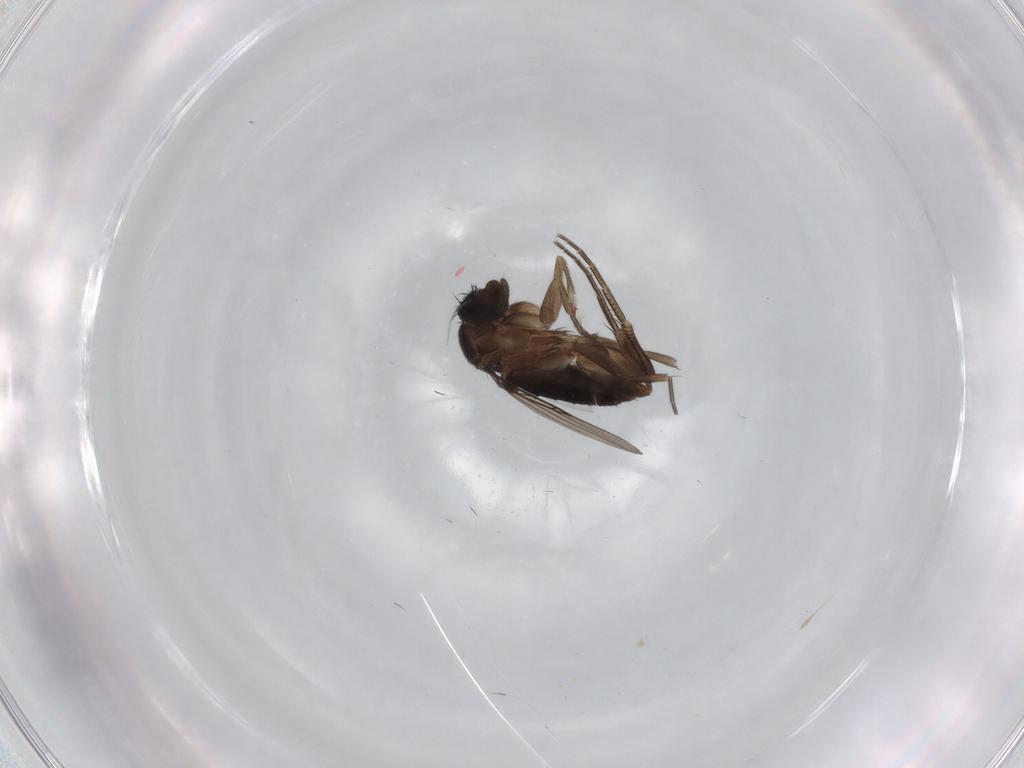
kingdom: Animalia
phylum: Arthropoda
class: Insecta
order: Diptera
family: Phoridae
